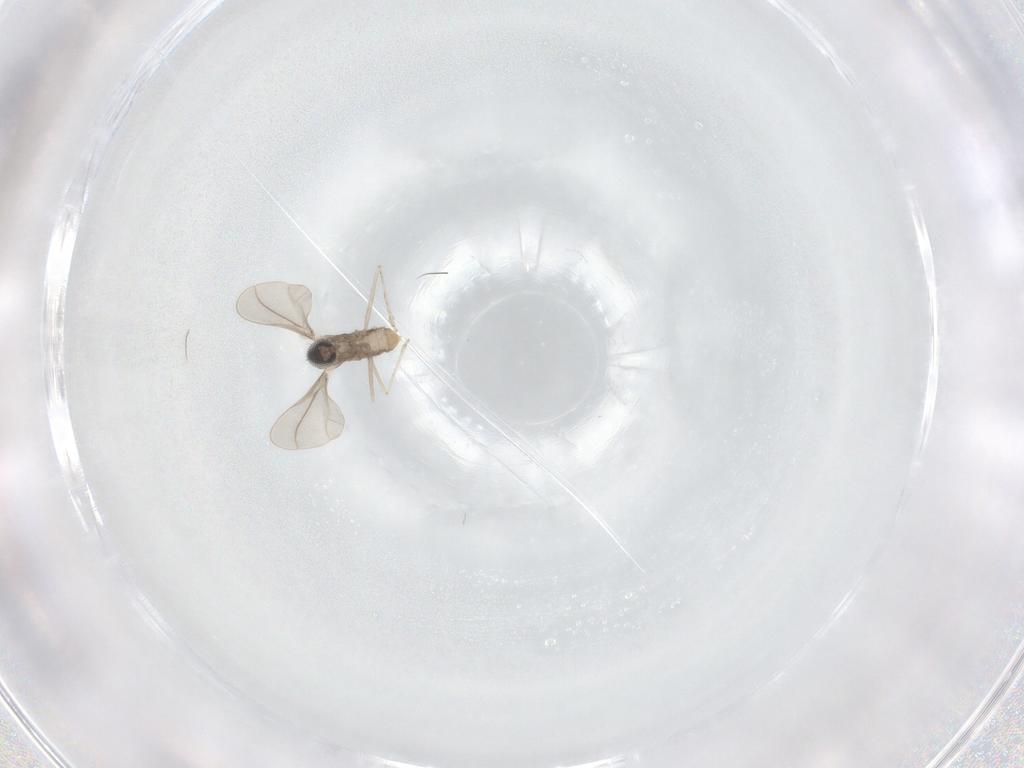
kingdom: Animalia
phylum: Arthropoda
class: Insecta
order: Diptera
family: Cecidomyiidae
